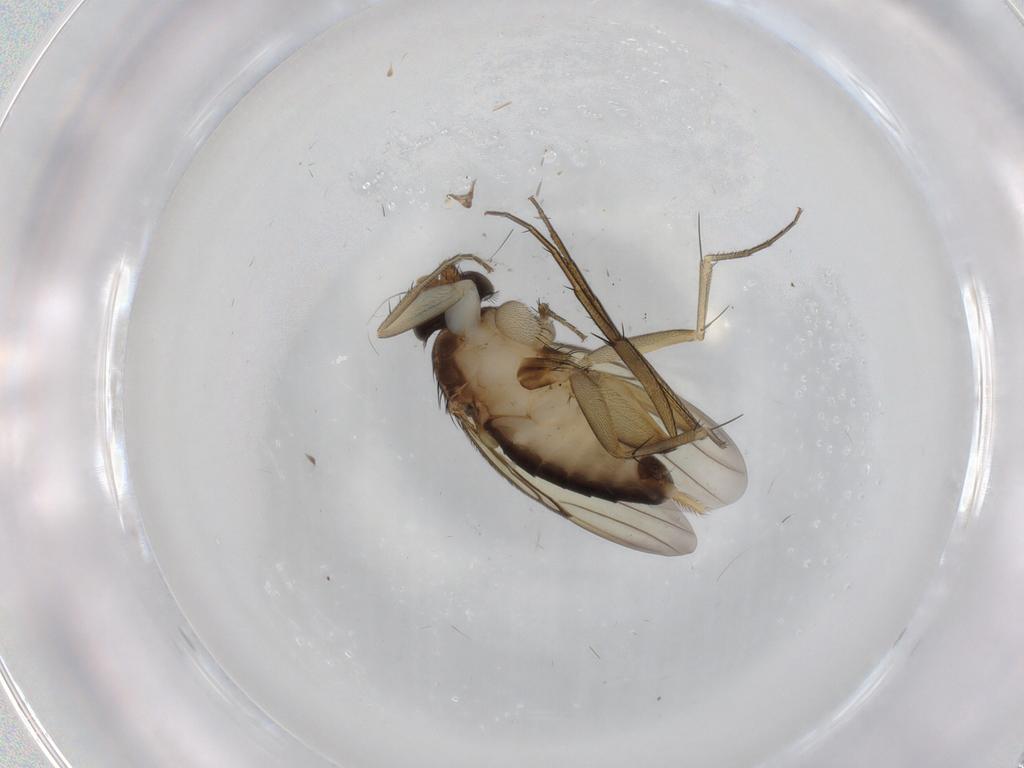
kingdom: Animalia
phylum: Arthropoda
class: Insecta
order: Diptera
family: Phoridae
